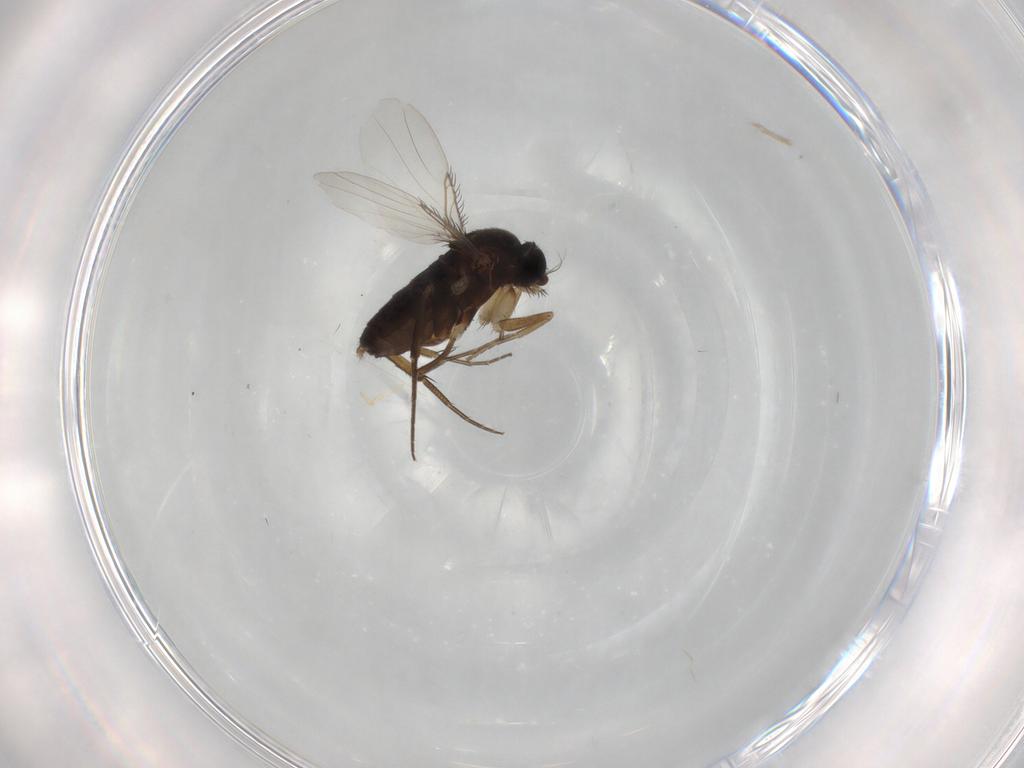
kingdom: Animalia
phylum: Arthropoda
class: Insecta
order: Diptera
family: Phoridae
